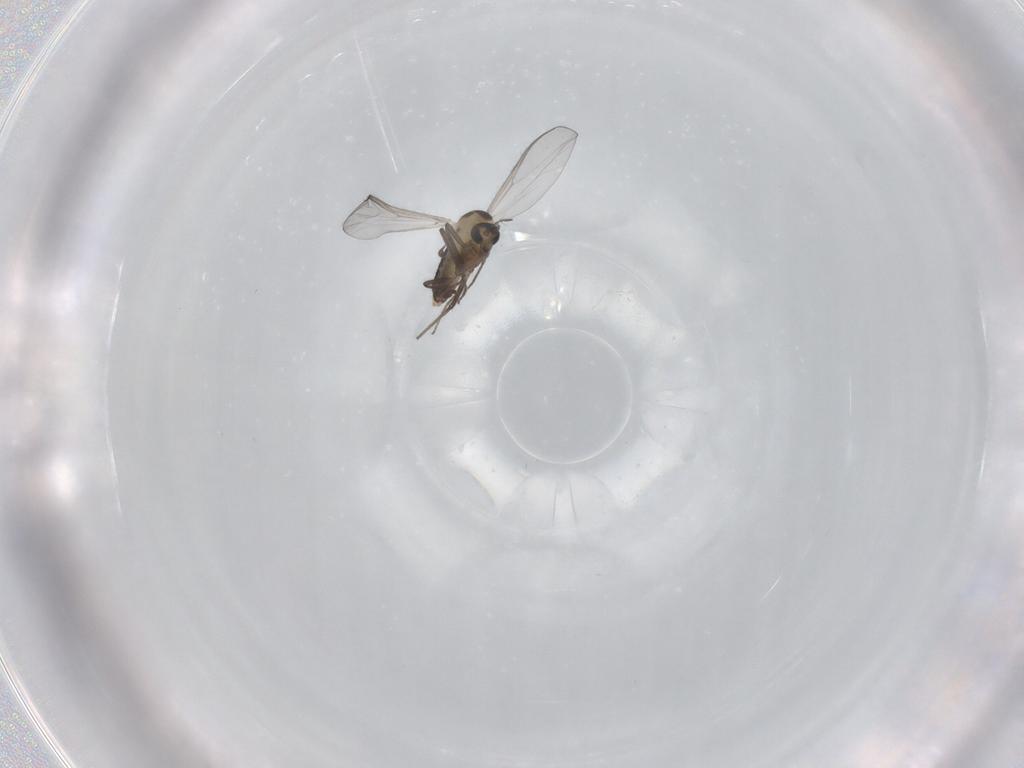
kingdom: Animalia
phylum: Arthropoda
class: Insecta
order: Diptera
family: Chironomidae
